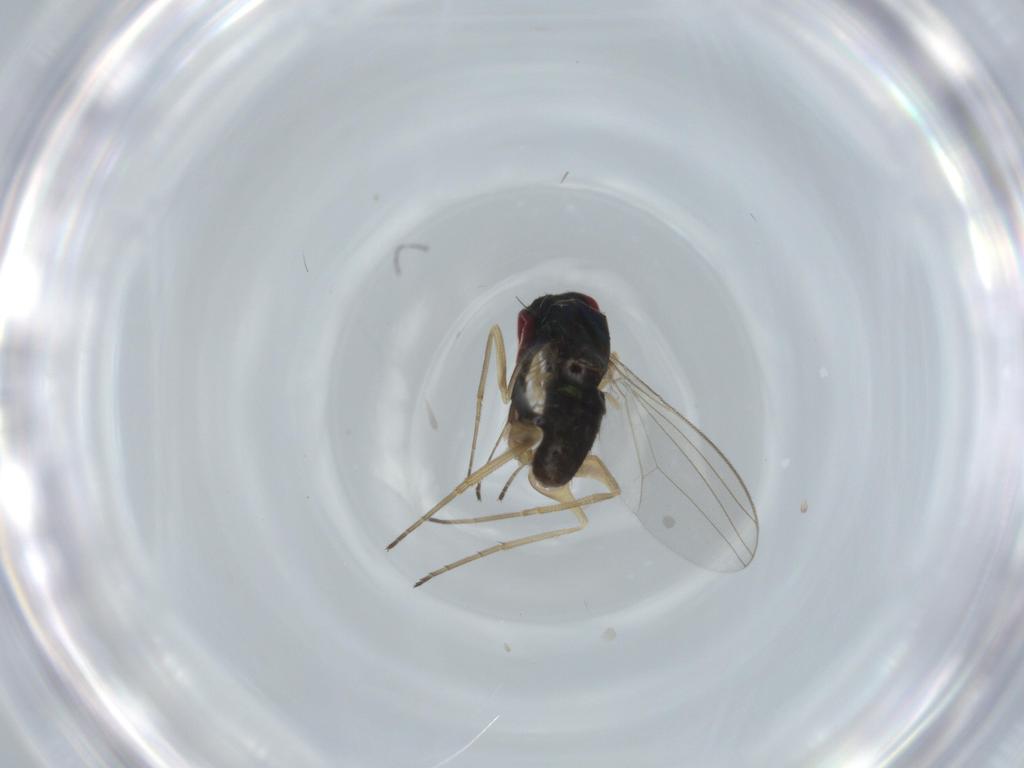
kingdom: Animalia
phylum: Arthropoda
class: Insecta
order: Diptera
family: Dolichopodidae
